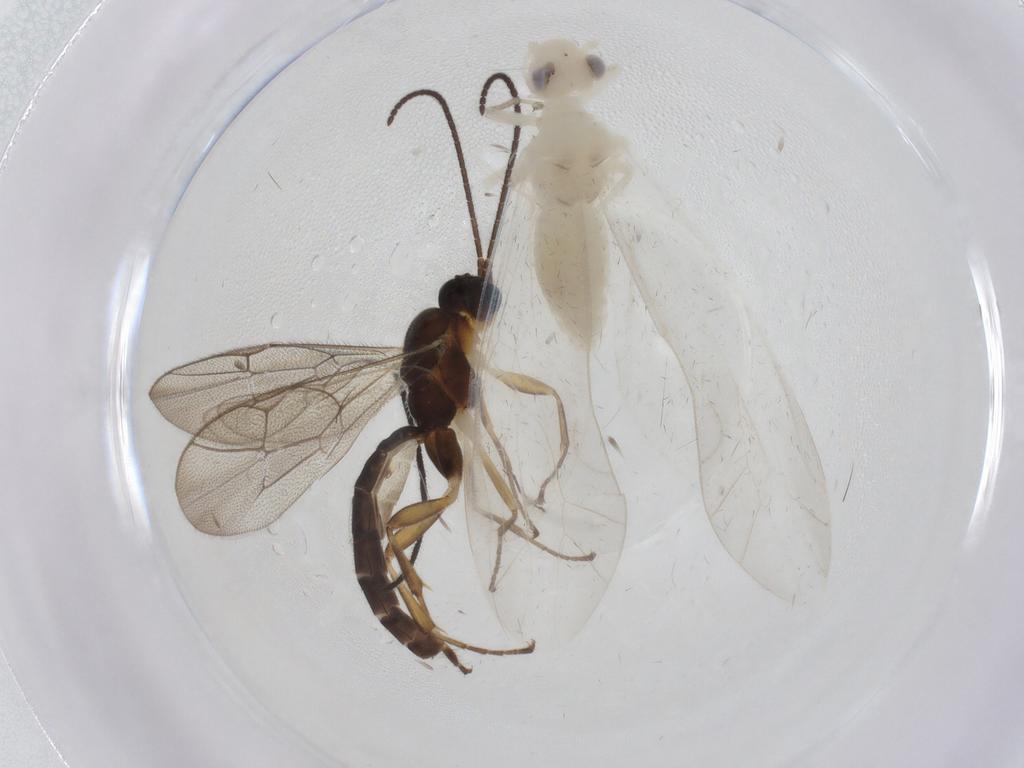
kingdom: Animalia
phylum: Arthropoda
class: Insecta
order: Hymenoptera
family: Ichneumonidae
